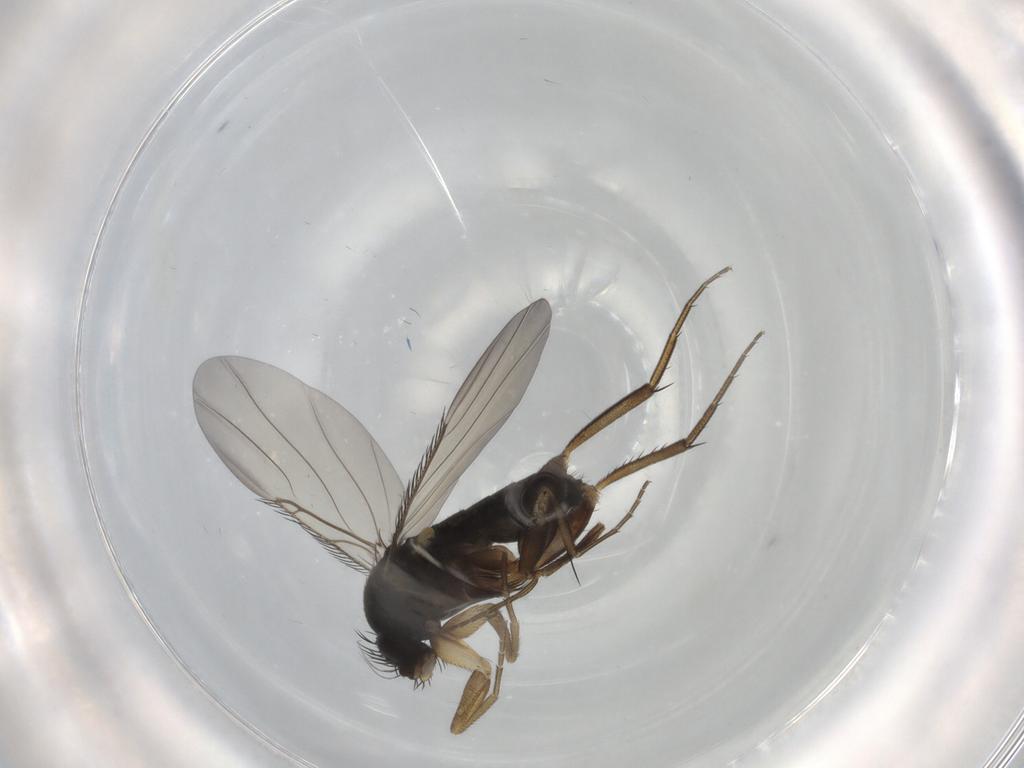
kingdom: Animalia
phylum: Arthropoda
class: Insecta
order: Diptera
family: Phoridae
